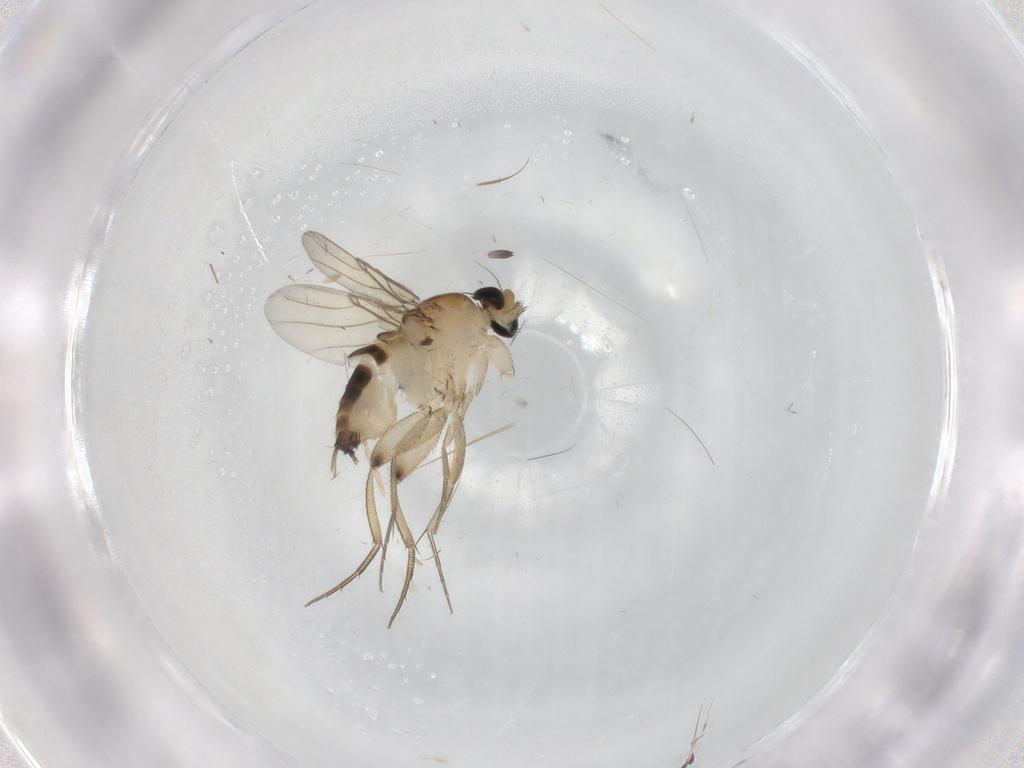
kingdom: Animalia
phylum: Arthropoda
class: Insecta
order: Diptera
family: Phoridae
